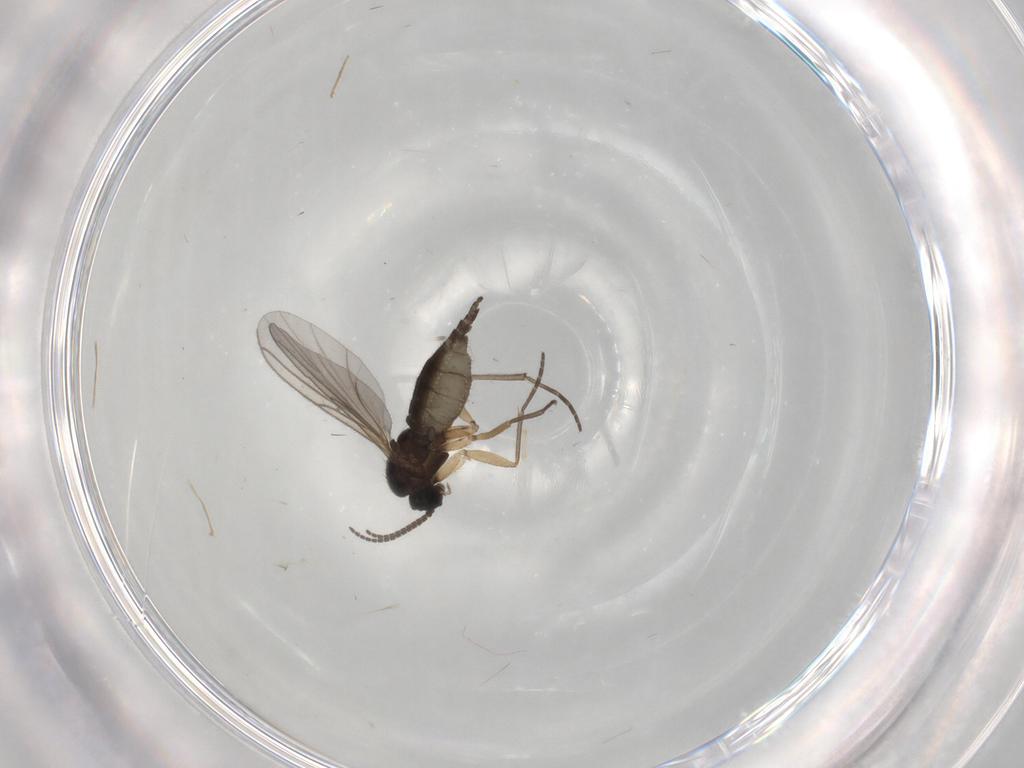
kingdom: Animalia
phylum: Arthropoda
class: Insecta
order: Diptera
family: Sciaridae
